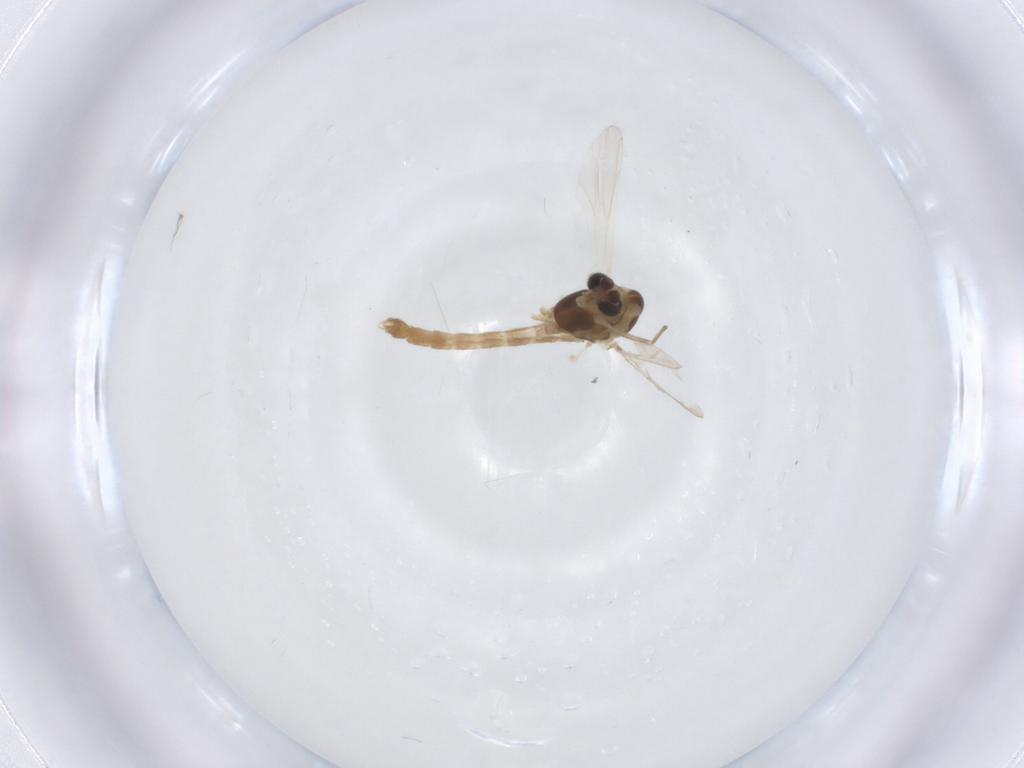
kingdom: Animalia
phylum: Arthropoda
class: Insecta
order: Diptera
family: Chironomidae
